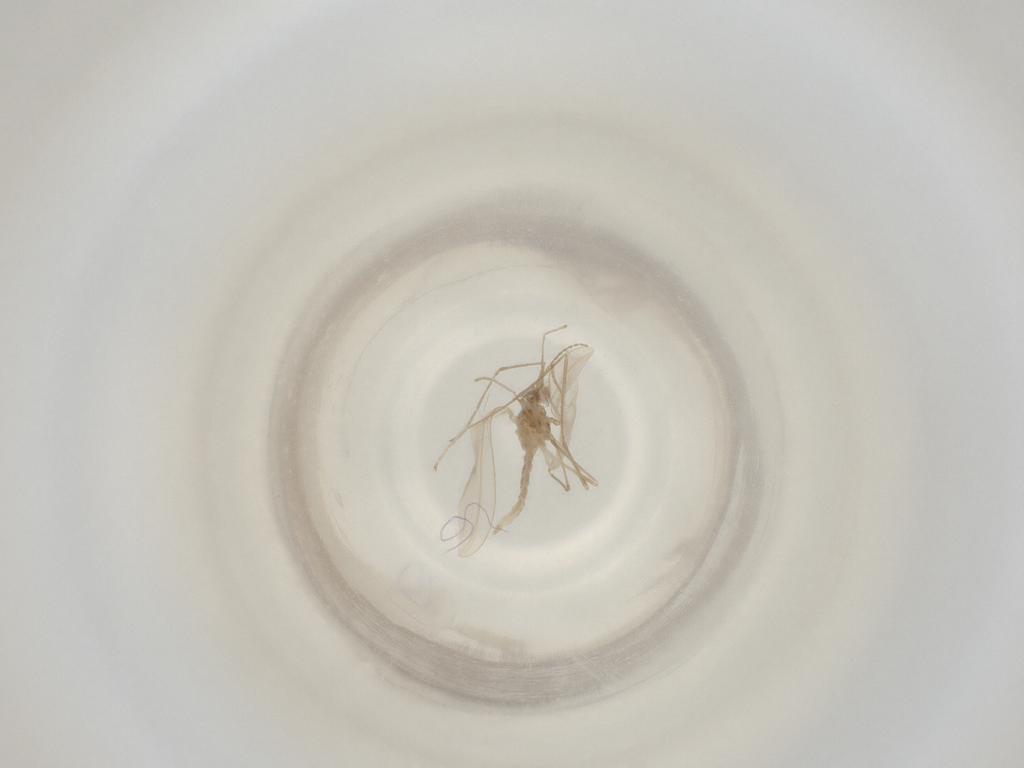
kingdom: Animalia
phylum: Arthropoda
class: Insecta
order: Diptera
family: Cecidomyiidae
